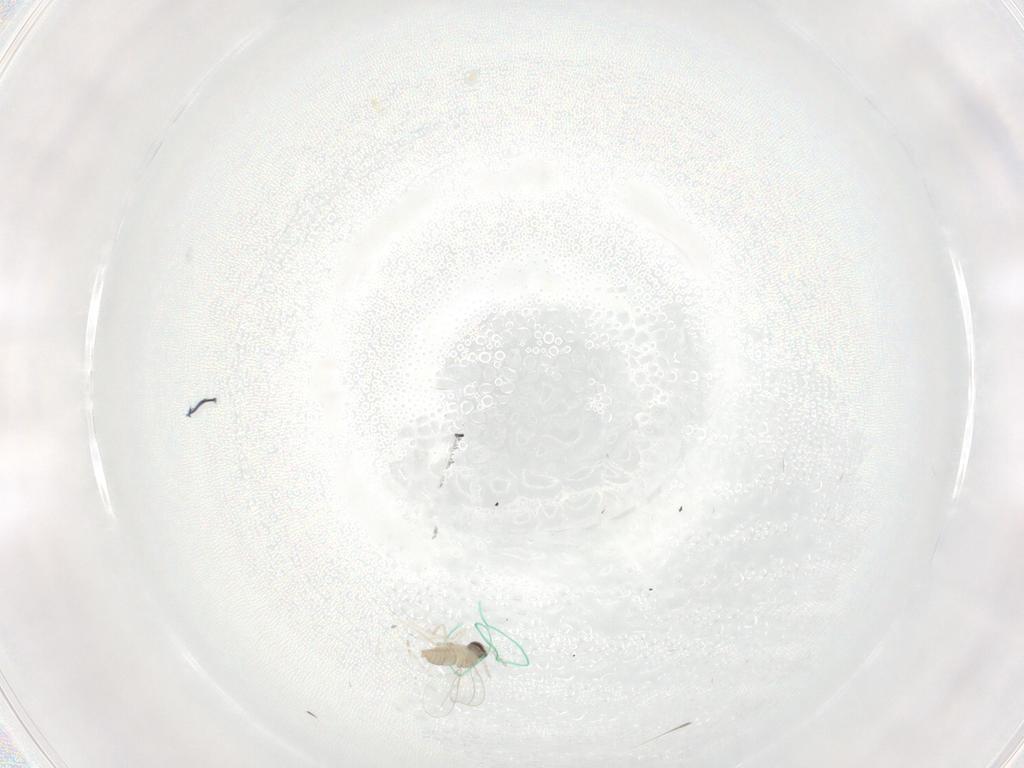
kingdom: Animalia
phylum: Arthropoda
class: Insecta
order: Diptera
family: Cecidomyiidae
